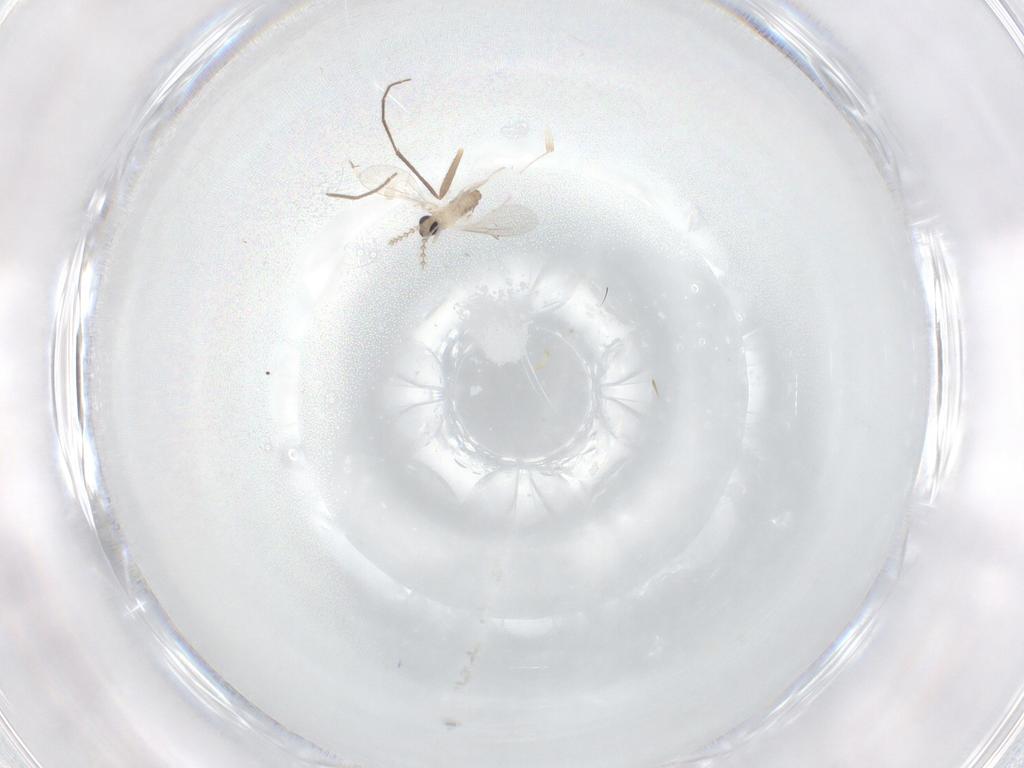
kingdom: Animalia
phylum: Arthropoda
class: Insecta
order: Diptera
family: Cecidomyiidae
